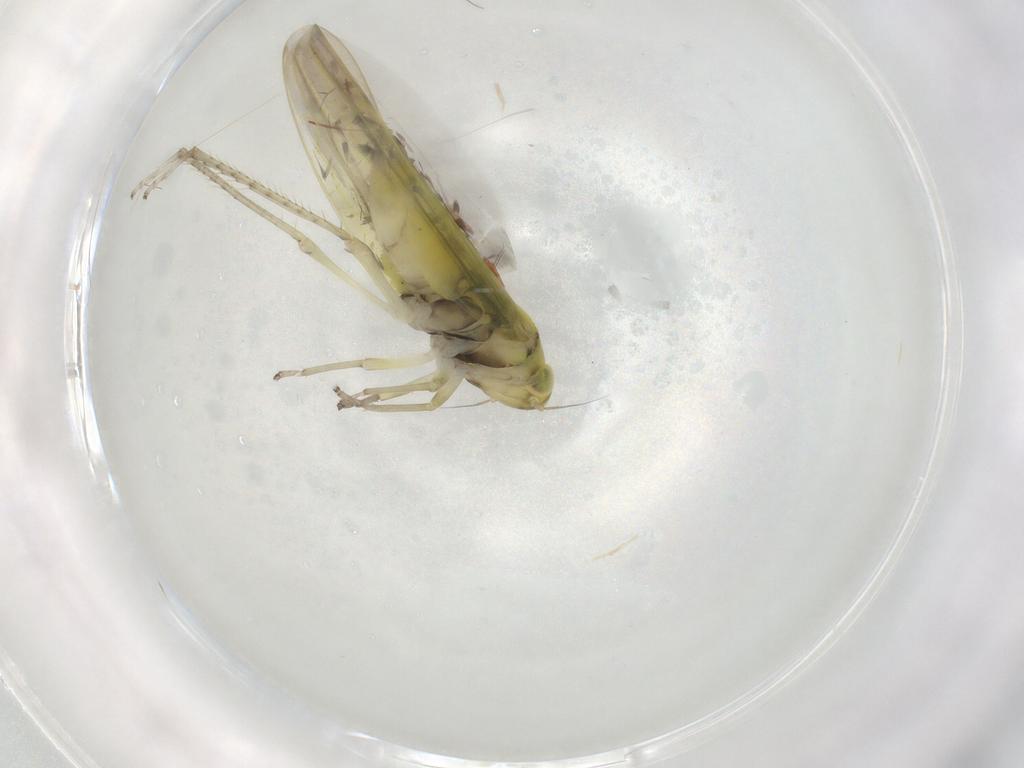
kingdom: Animalia
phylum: Arthropoda
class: Insecta
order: Hemiptera
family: Cicadellidae
